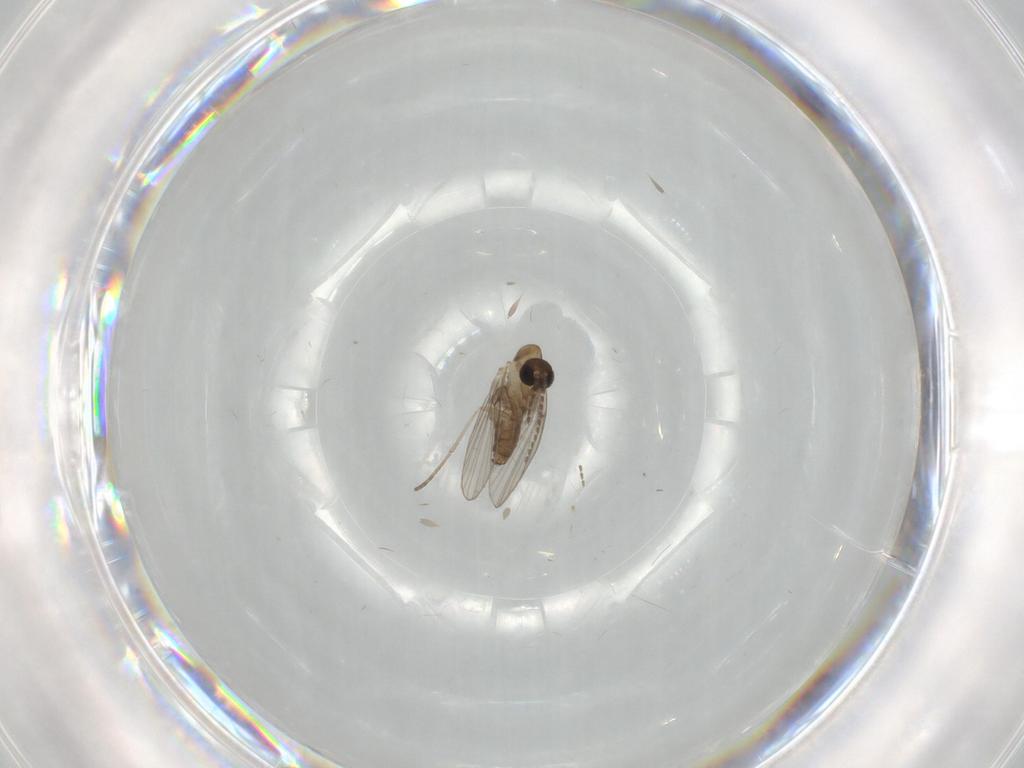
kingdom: Animalia
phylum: Arthropoda
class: Insecta
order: Diptera
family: Psychodidae
